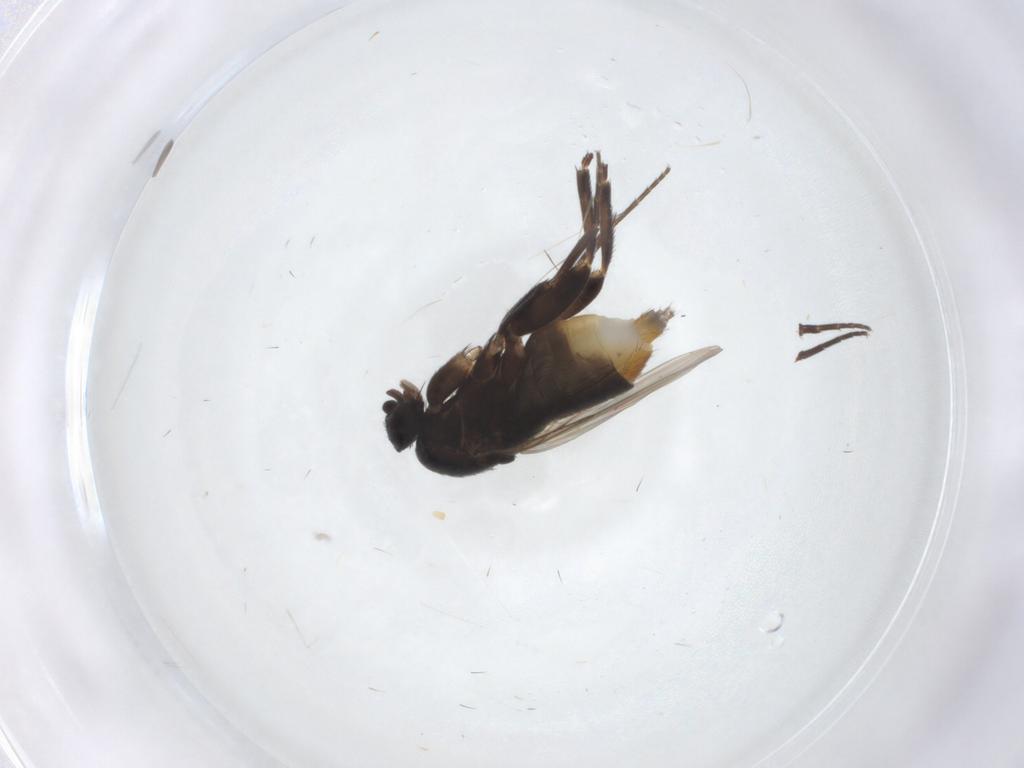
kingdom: Animalia
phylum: Arthropoda
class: Insecta
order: Diptera
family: Phoridae
